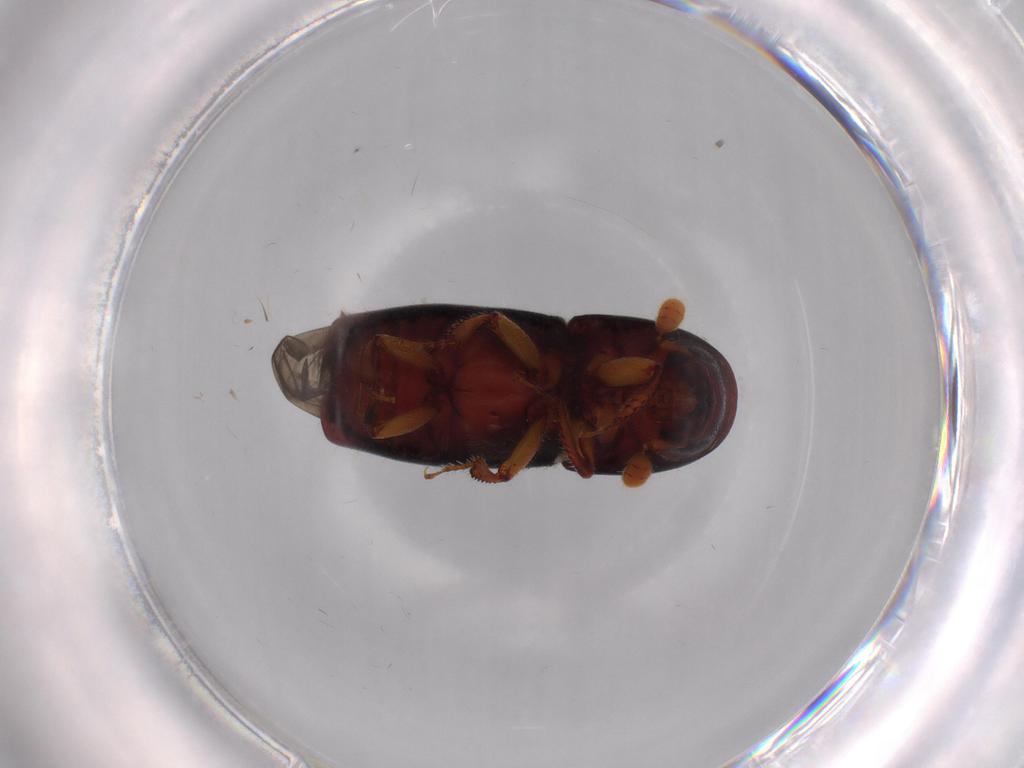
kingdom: Animalia
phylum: Arthropoda
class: Insecta
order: Coleoptera
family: Curculionidae
